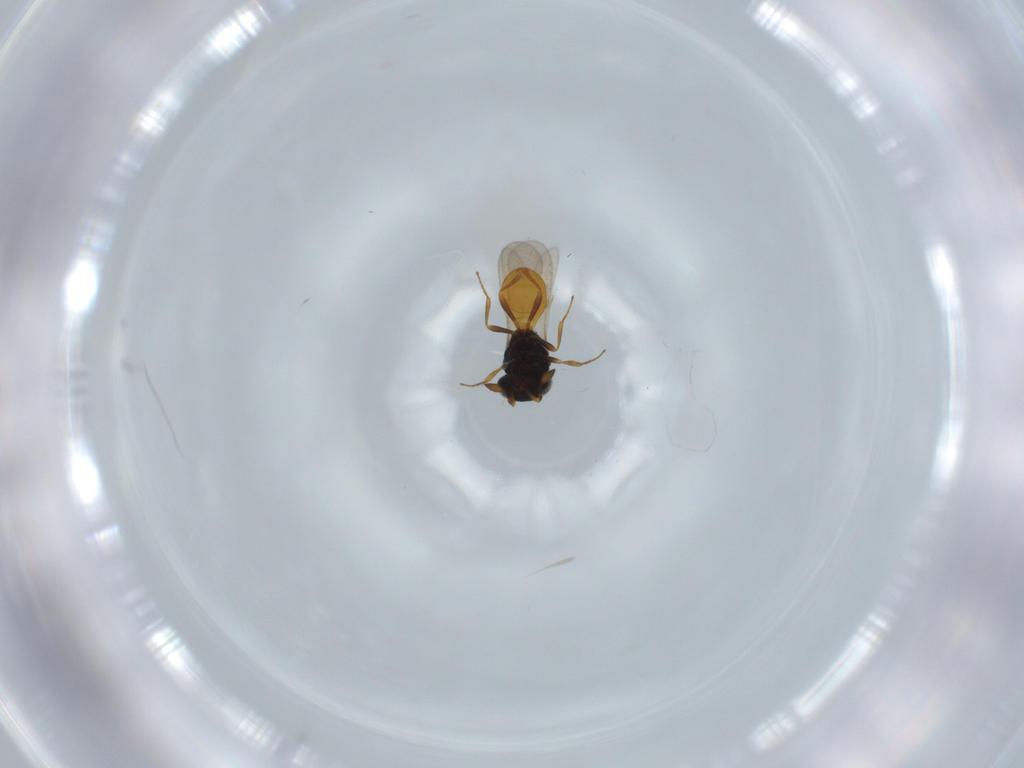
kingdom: Animalia
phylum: Arthropoda
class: Insecta
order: Hymenoptera
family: Scelionidae
